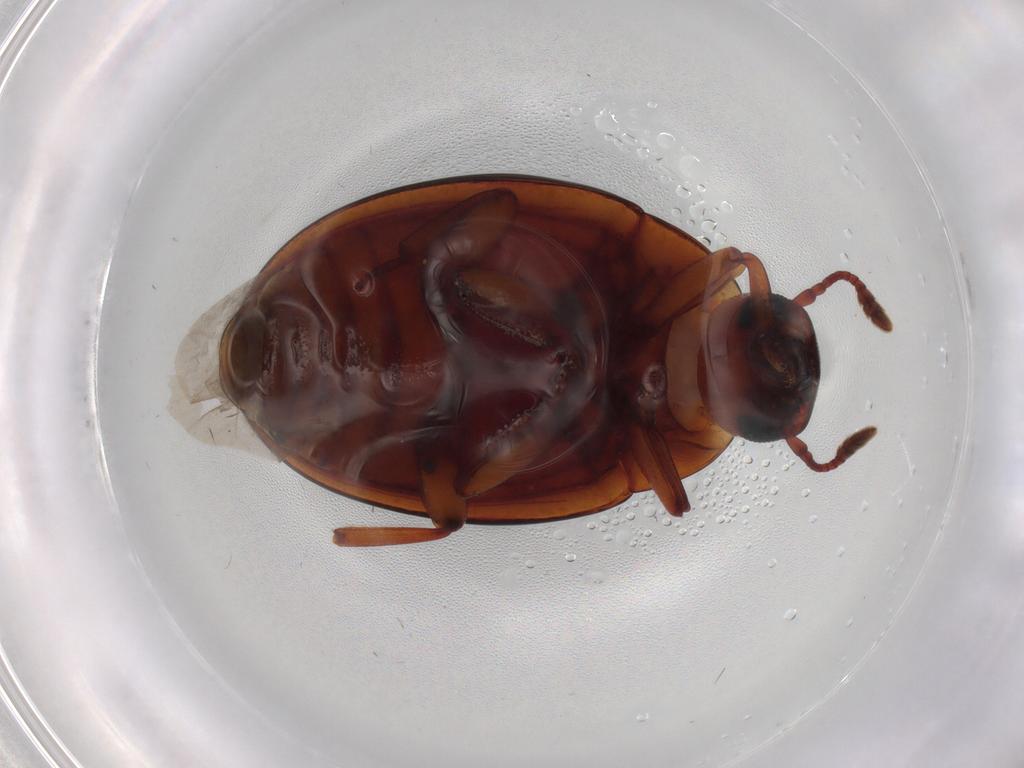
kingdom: Animalia
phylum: Arthropoda
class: Insecta
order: Coleoptera
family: Zopheridae
